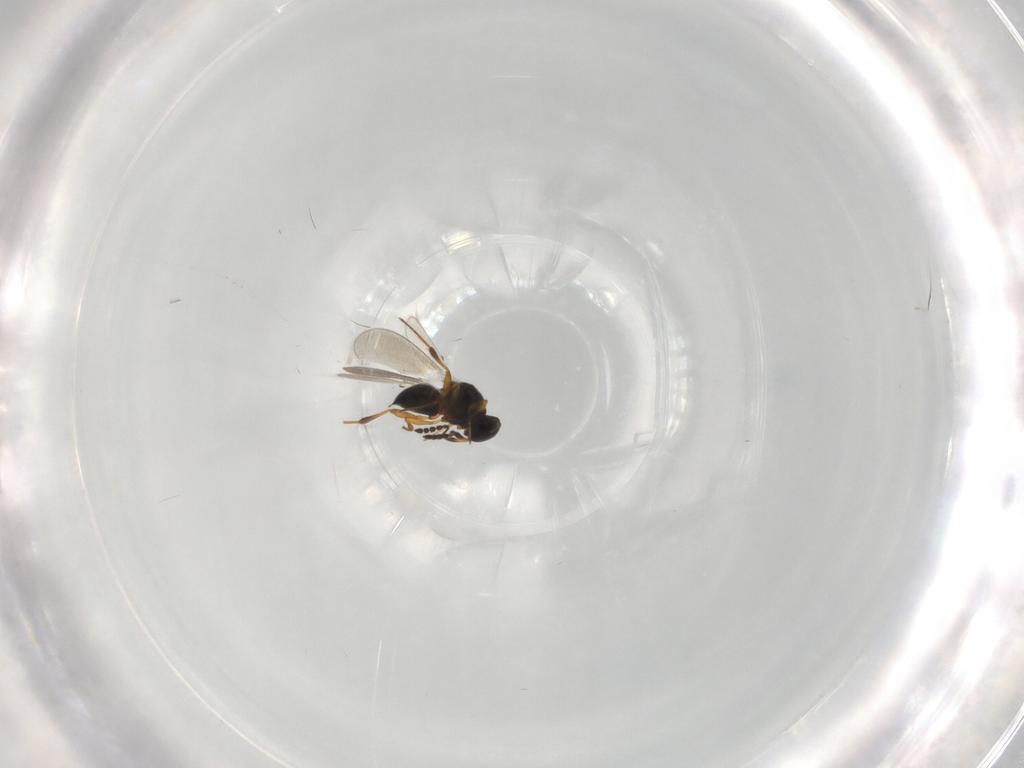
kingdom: Animalia
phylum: Arthropoda
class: Insecta
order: Hymenoptera
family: Platygastridae
